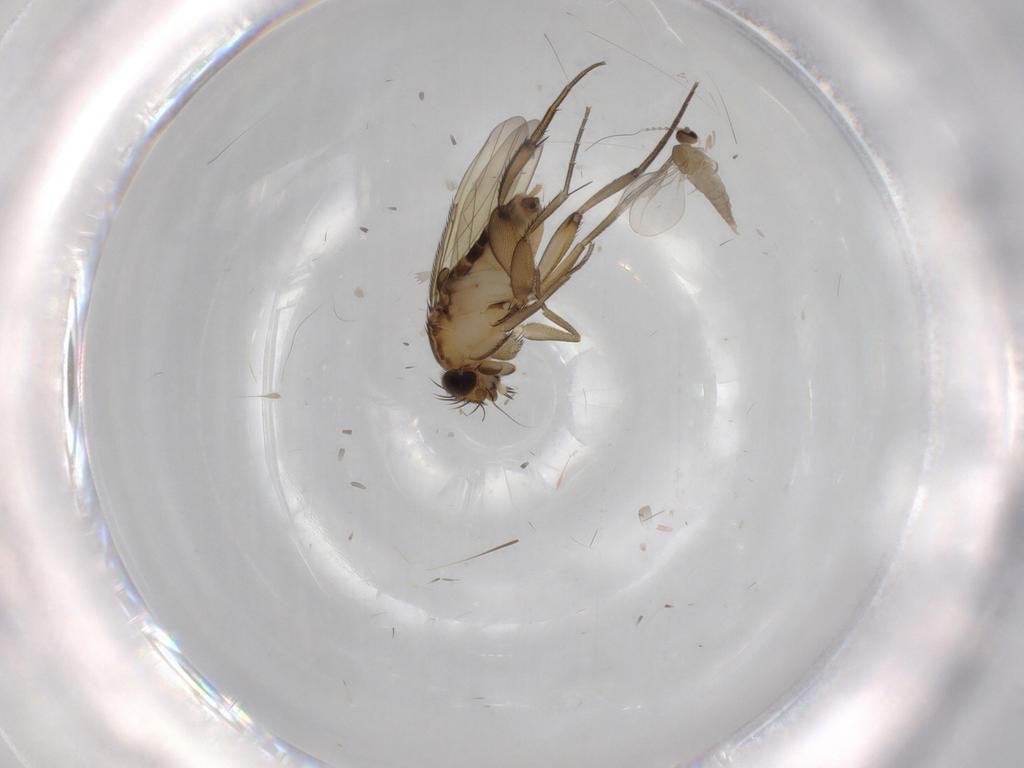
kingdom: Animalia
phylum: Arthropoda
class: Insecta
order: Diptera
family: Phoridae
